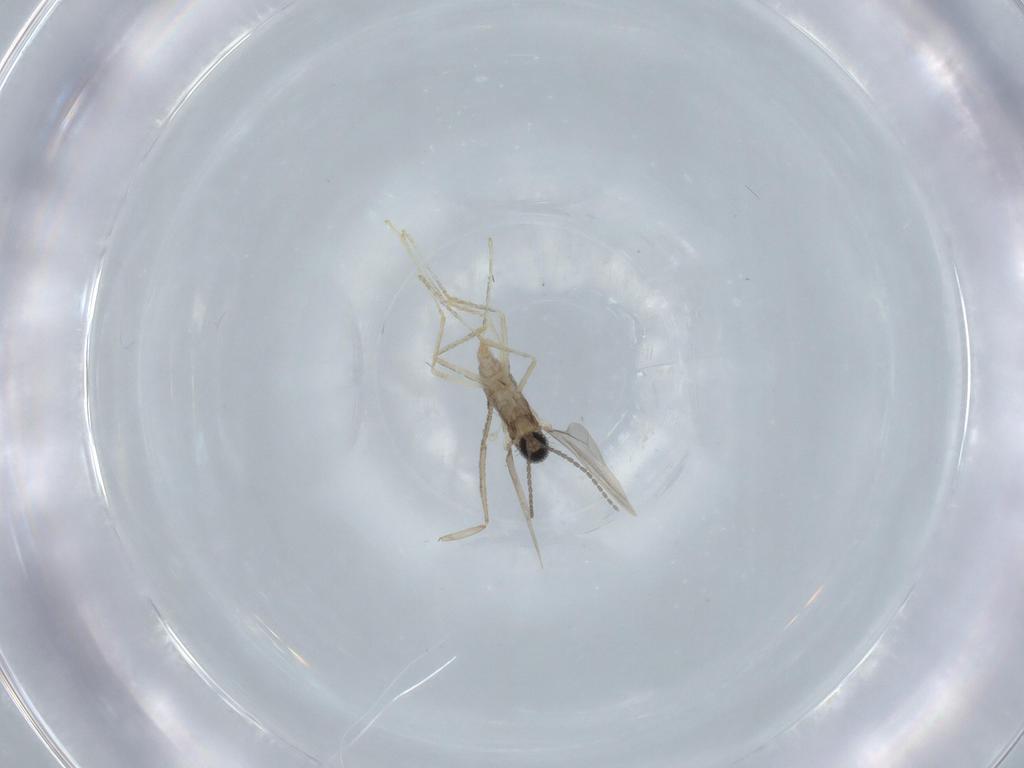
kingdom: Animalia
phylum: Arthropoda
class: Insecta
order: Diptera
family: Cecidomyiidae
